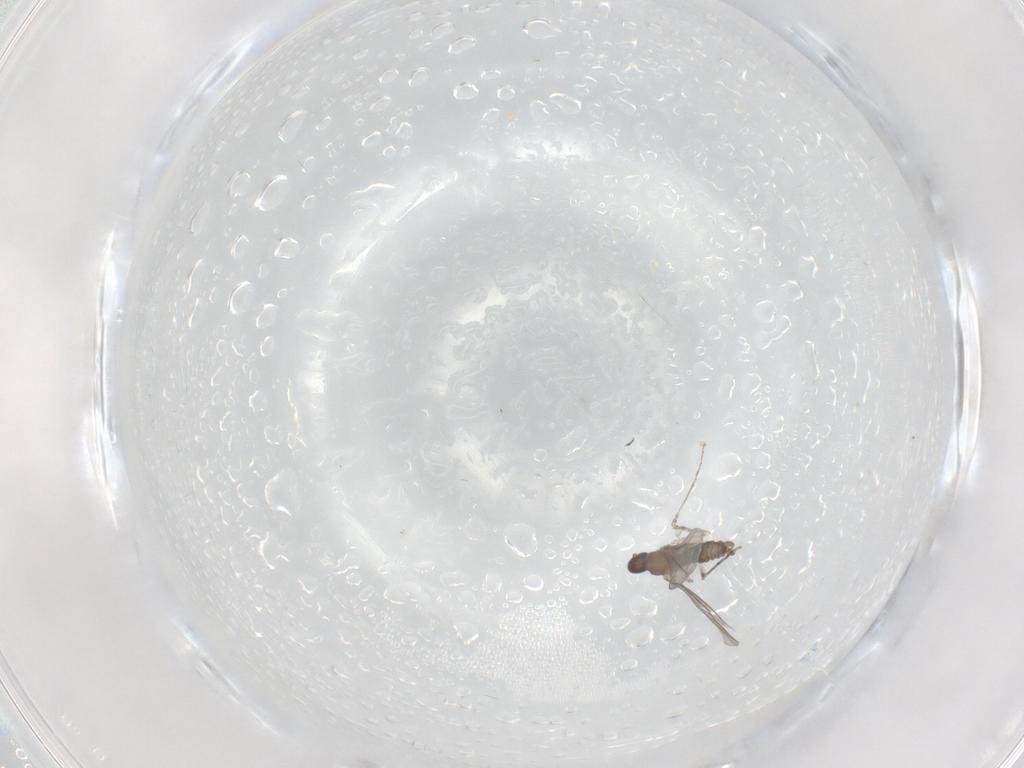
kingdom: Animalia
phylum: Arthropoda
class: Insecta
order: Diptera
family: Cecidomyiidae
